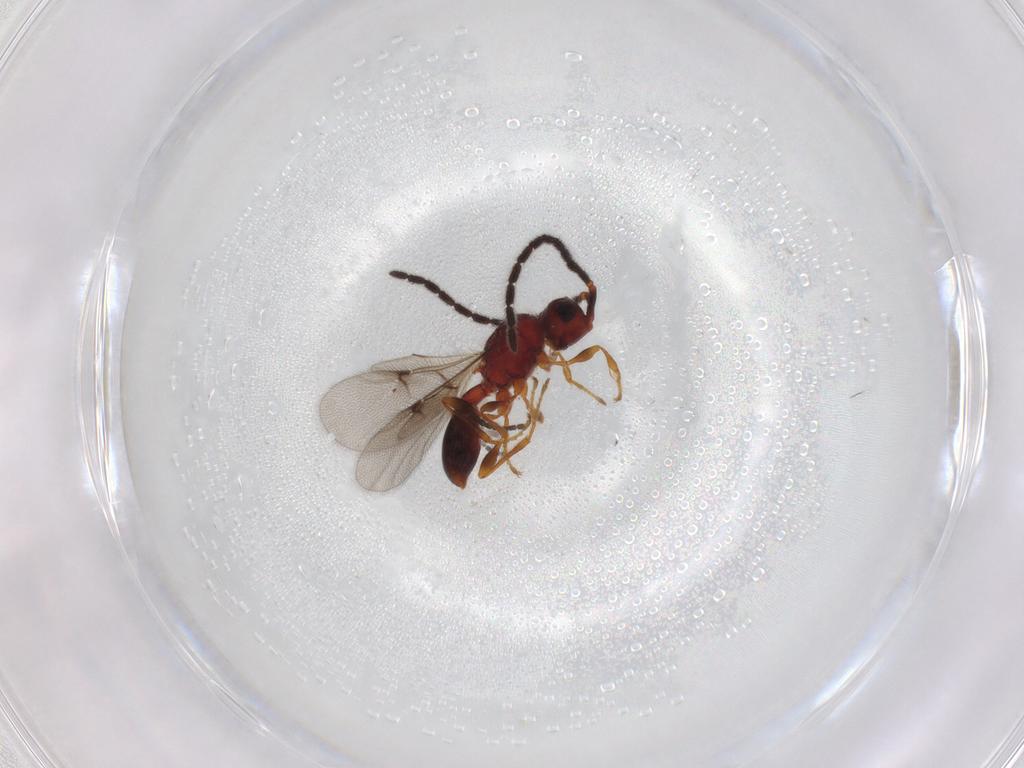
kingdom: Animalia
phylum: Arthropoda
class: Insecta
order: Hymenoptera
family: Diapriidae
